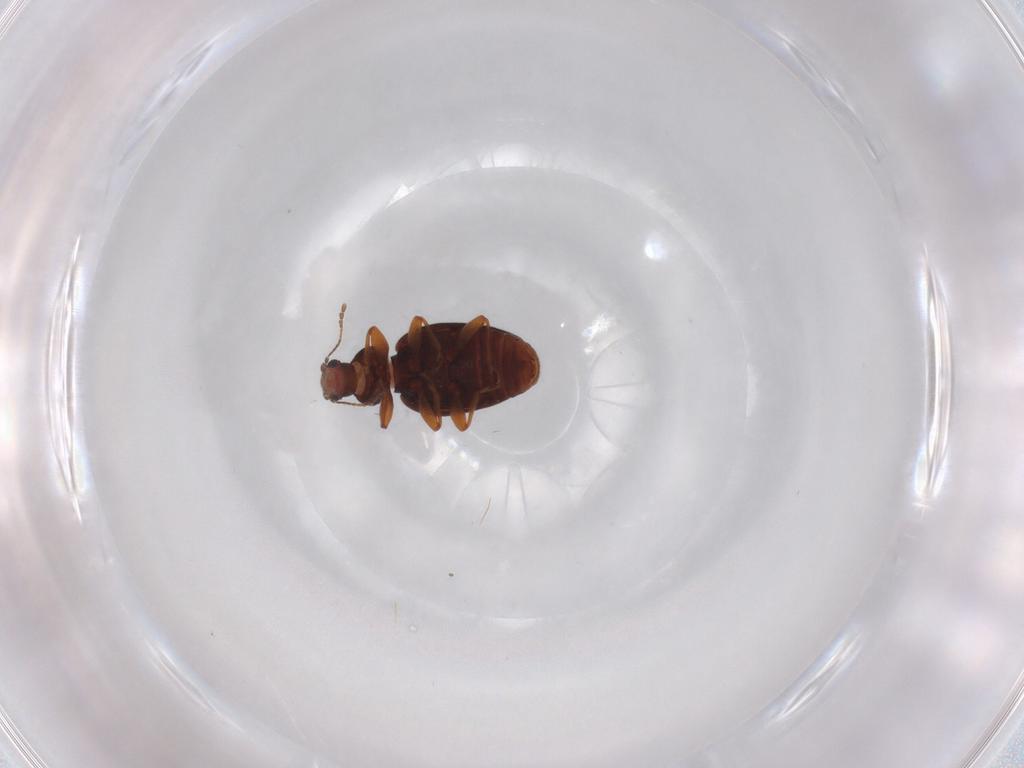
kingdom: Animalia
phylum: Arthropoda
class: Insecta
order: Coleoptera
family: Latridiidae
